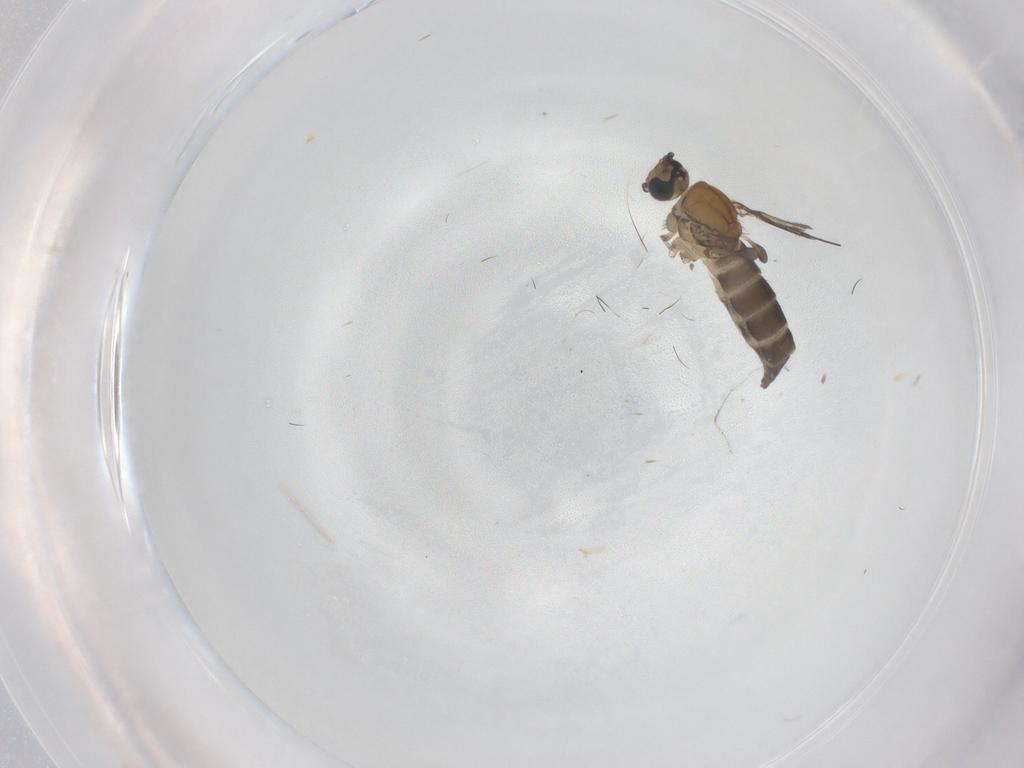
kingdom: Animalia
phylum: Arthropoda
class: Insecta
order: Diptera
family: Sciaridae
